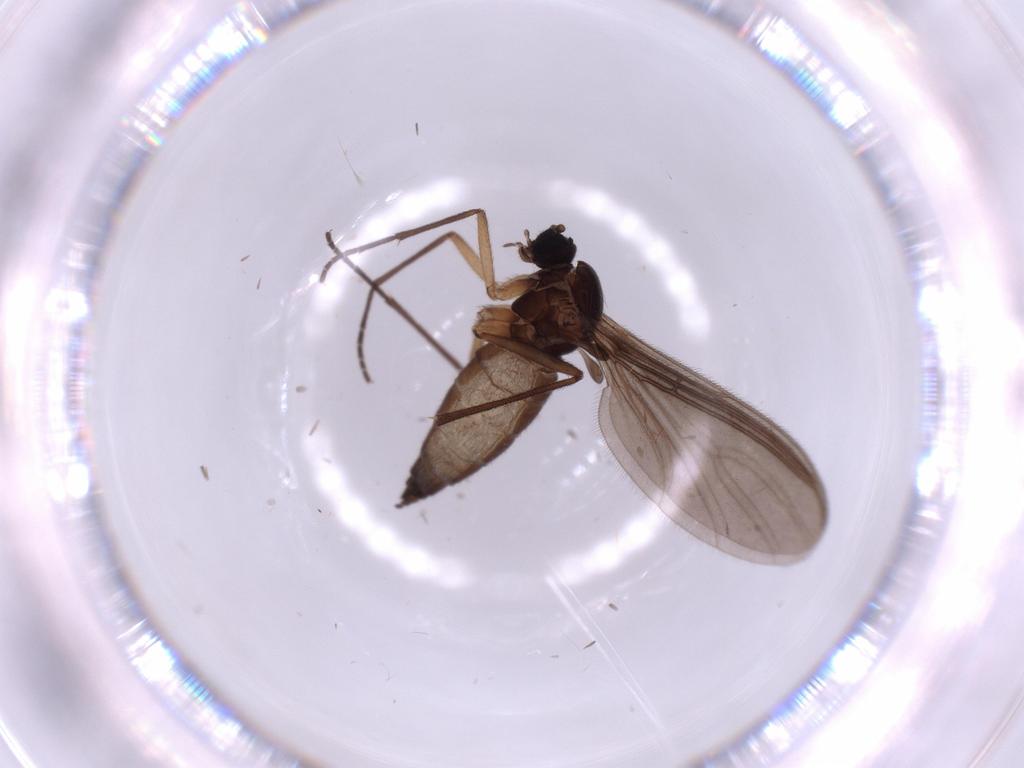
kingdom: Animalia
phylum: Arthropoda
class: Insecta
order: Diptera
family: Sciaridae
